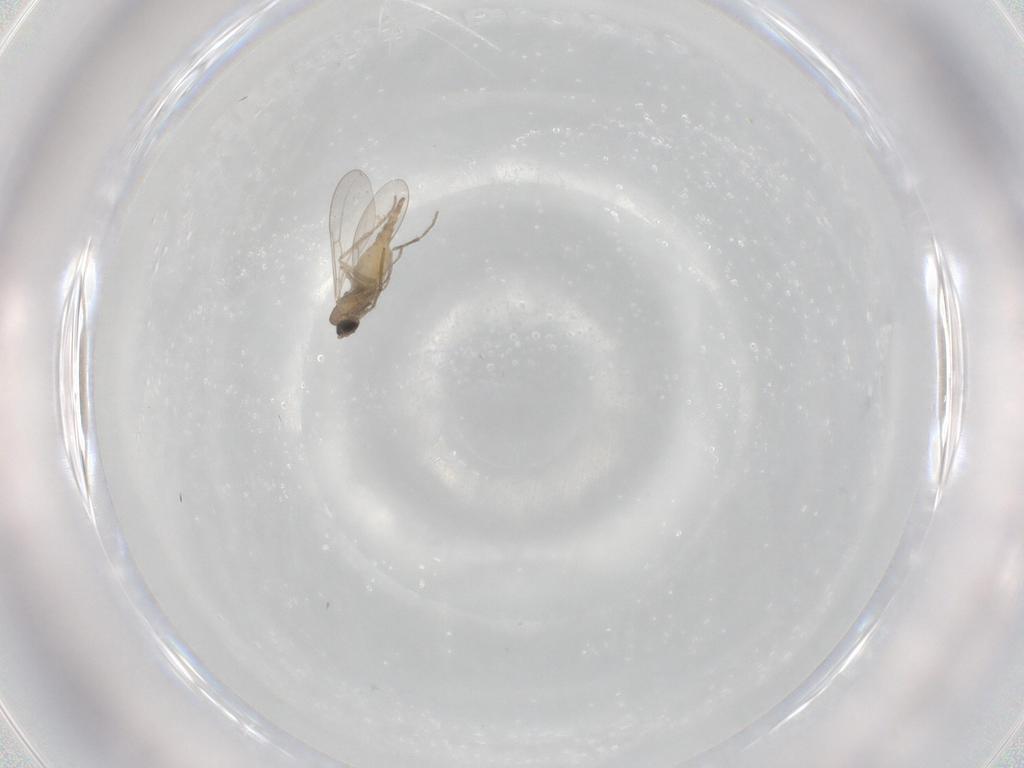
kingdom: Animalia
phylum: Arthropoda
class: Insecta
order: Diptera
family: Cecidomyiidae
